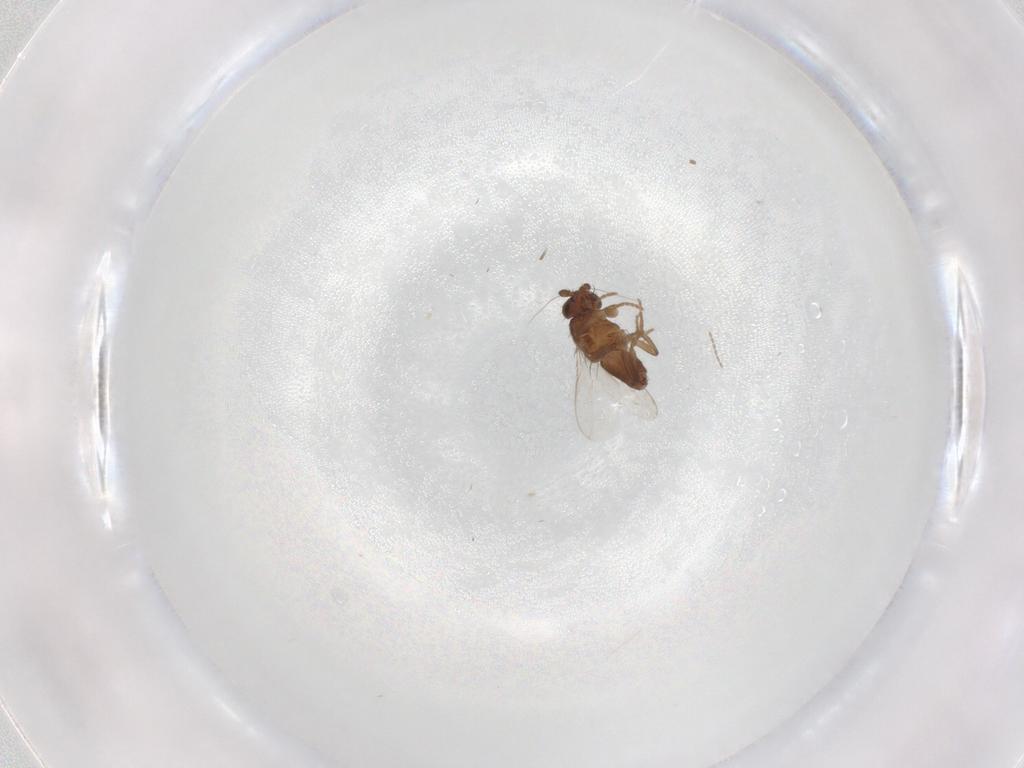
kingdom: Animalia
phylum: Arthropoda
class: Insecta
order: Diptera
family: Sphaeroceridae
